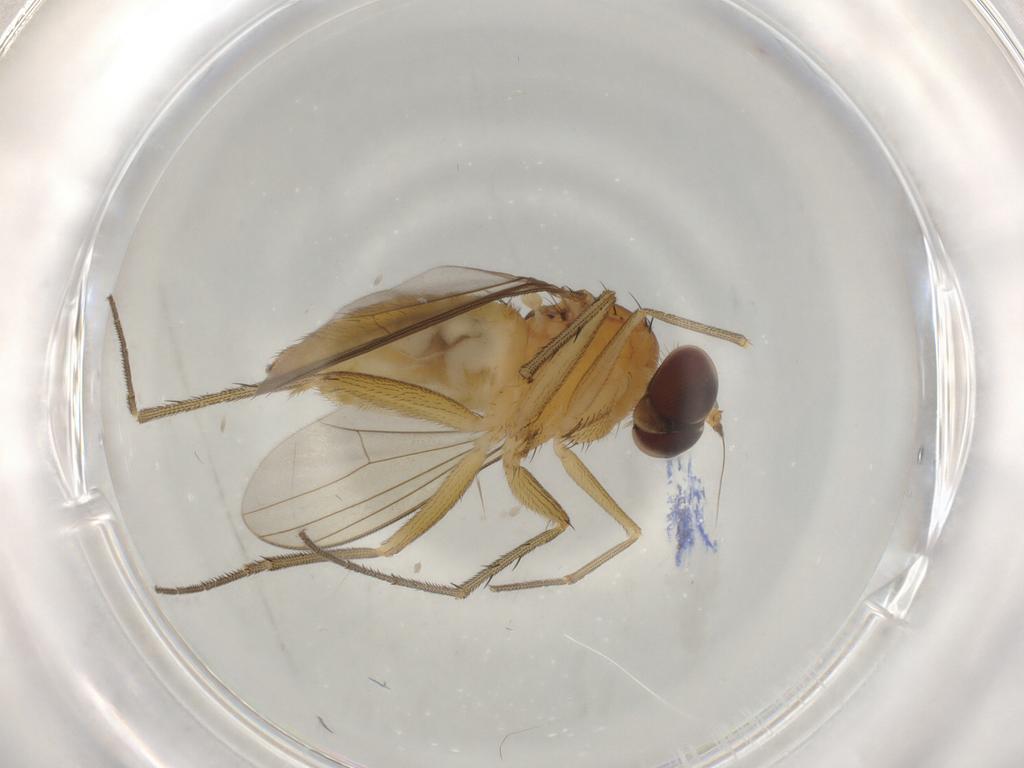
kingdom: Animalia
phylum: Arthropoda
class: Insecta
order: Diptera
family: Dolichopodidae
